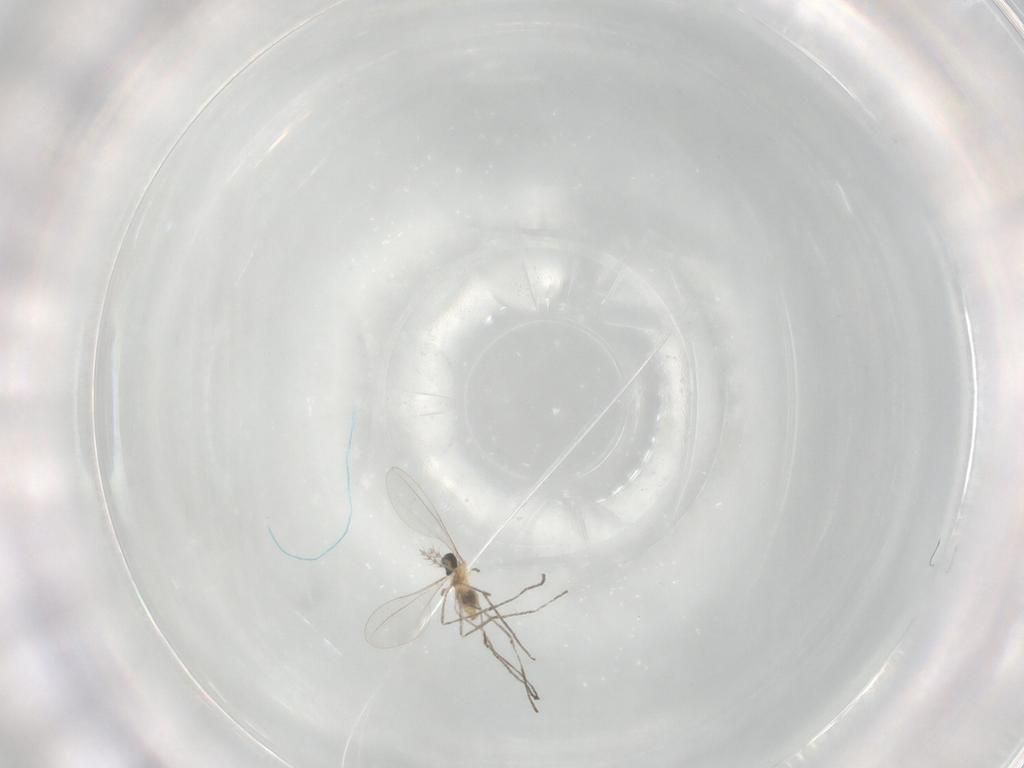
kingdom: Animalia
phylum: Arthropoda
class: Insecta
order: Diptera
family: Cecidomyiidae
